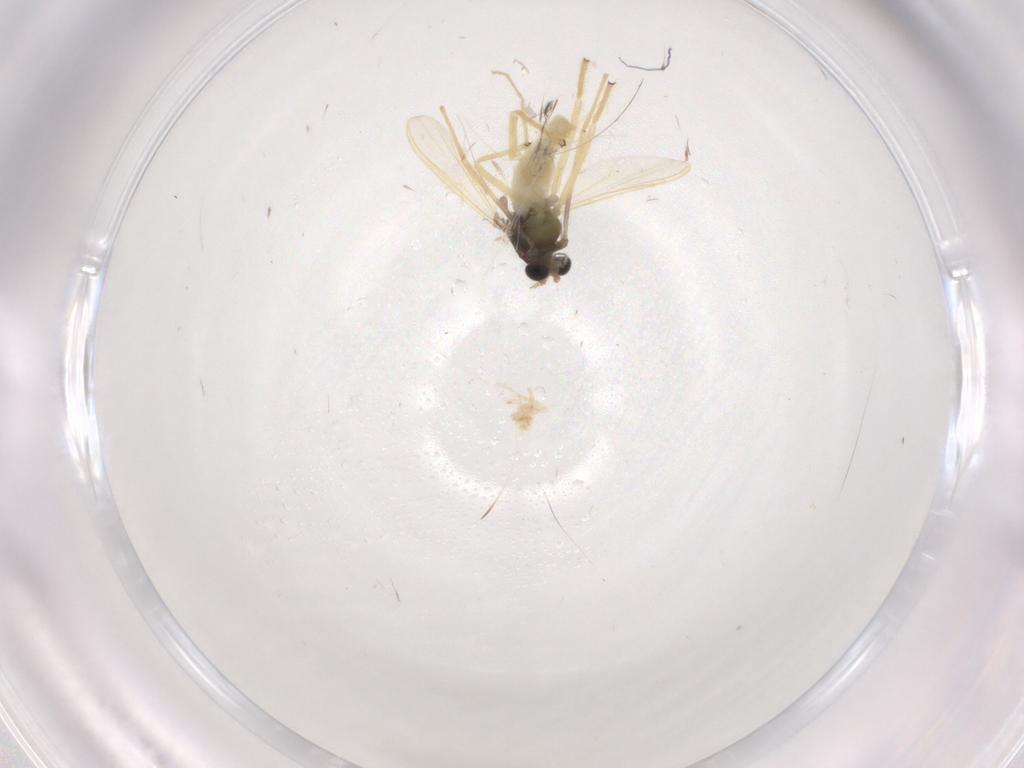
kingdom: Animalia
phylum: Arthropoda
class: Insecta
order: Diptera
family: Chironomidae
